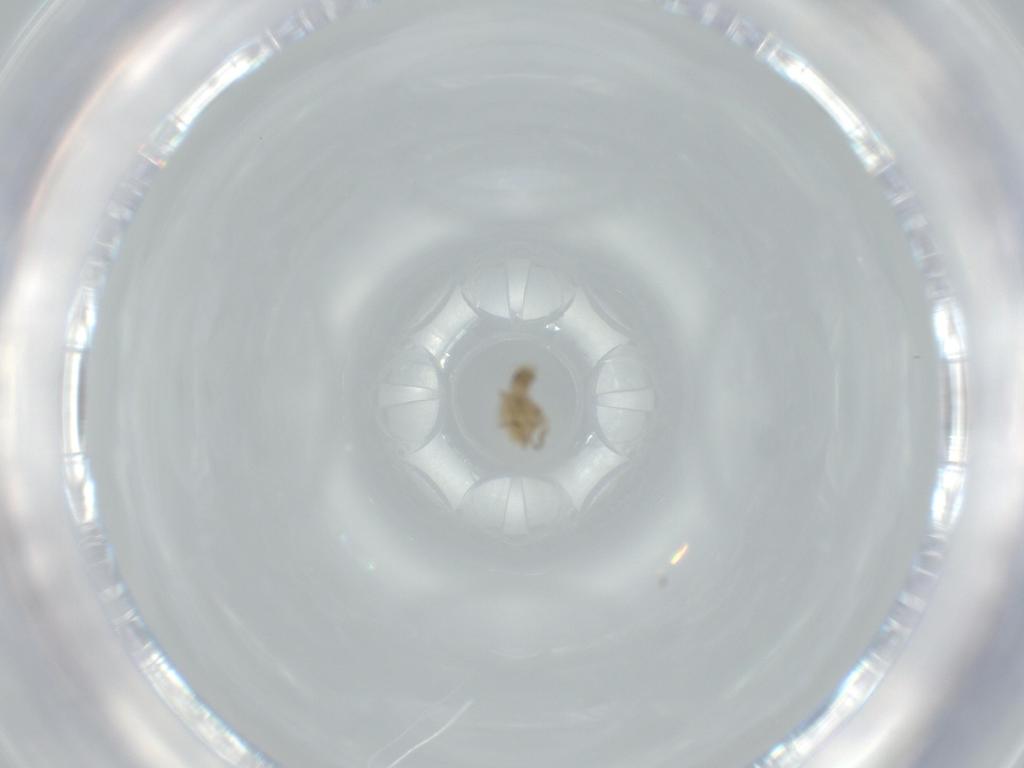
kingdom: Animalia
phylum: Arthropoda
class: Insecta
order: Diptera
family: Phoridae
